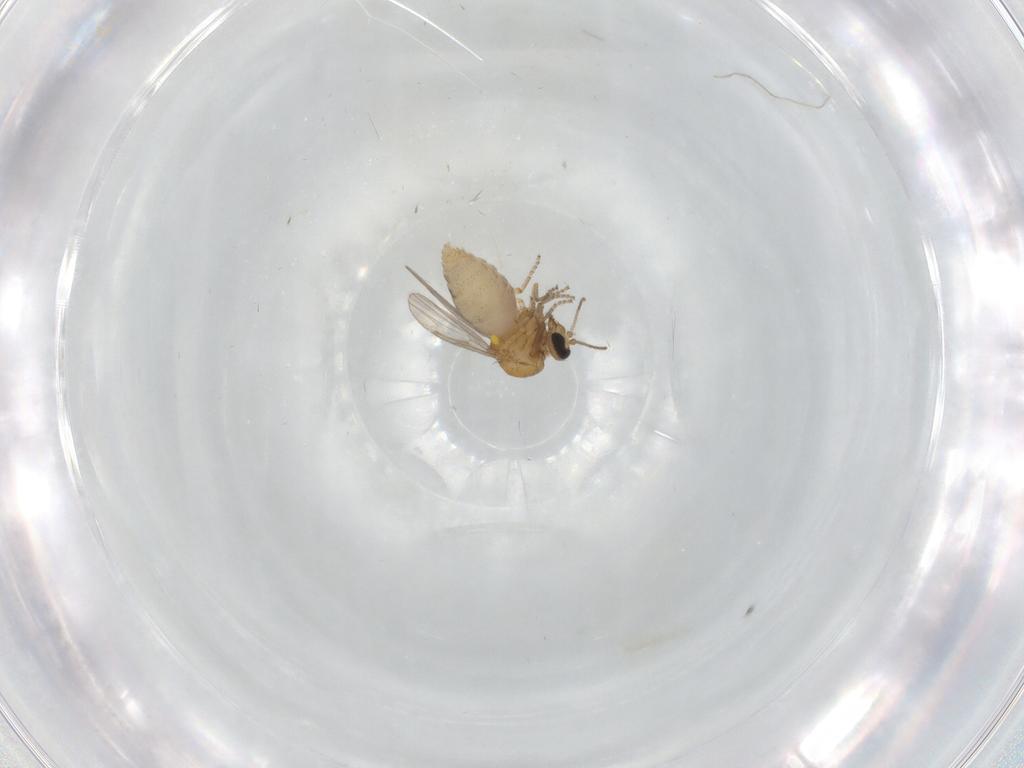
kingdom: Animalia
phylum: Arthropoda
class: Insecta
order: Diptera
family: Ceratopogonidae
